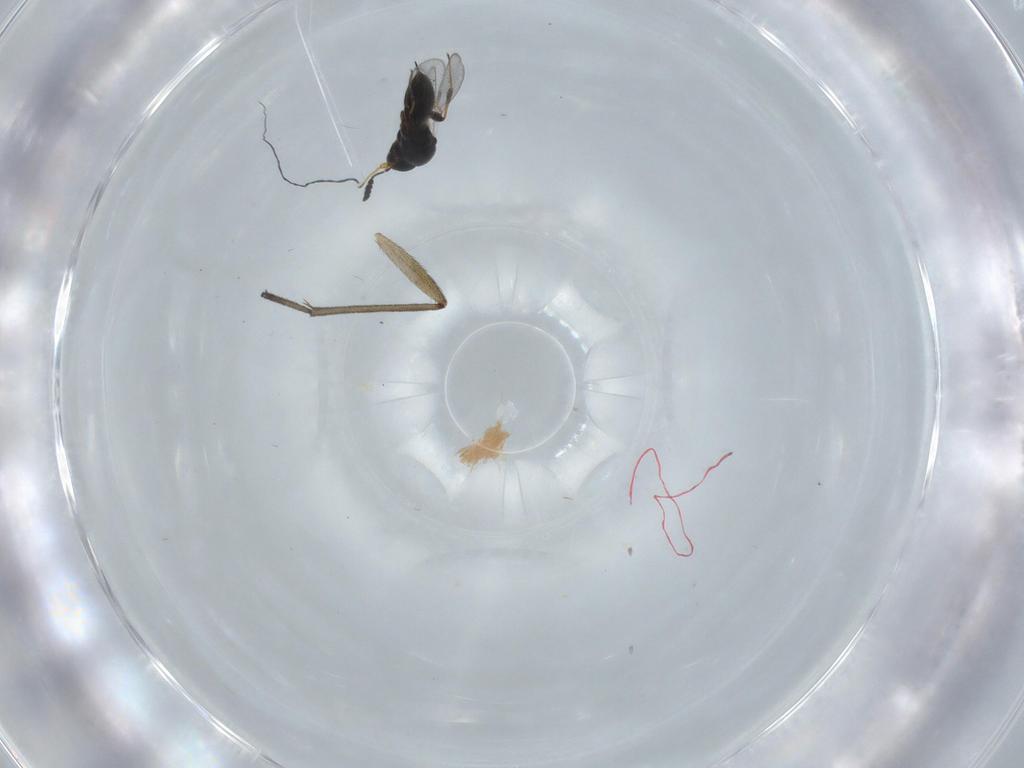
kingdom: Animalia
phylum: Arthropoda
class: Insecta
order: Hymenoptera
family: Platygastridae
